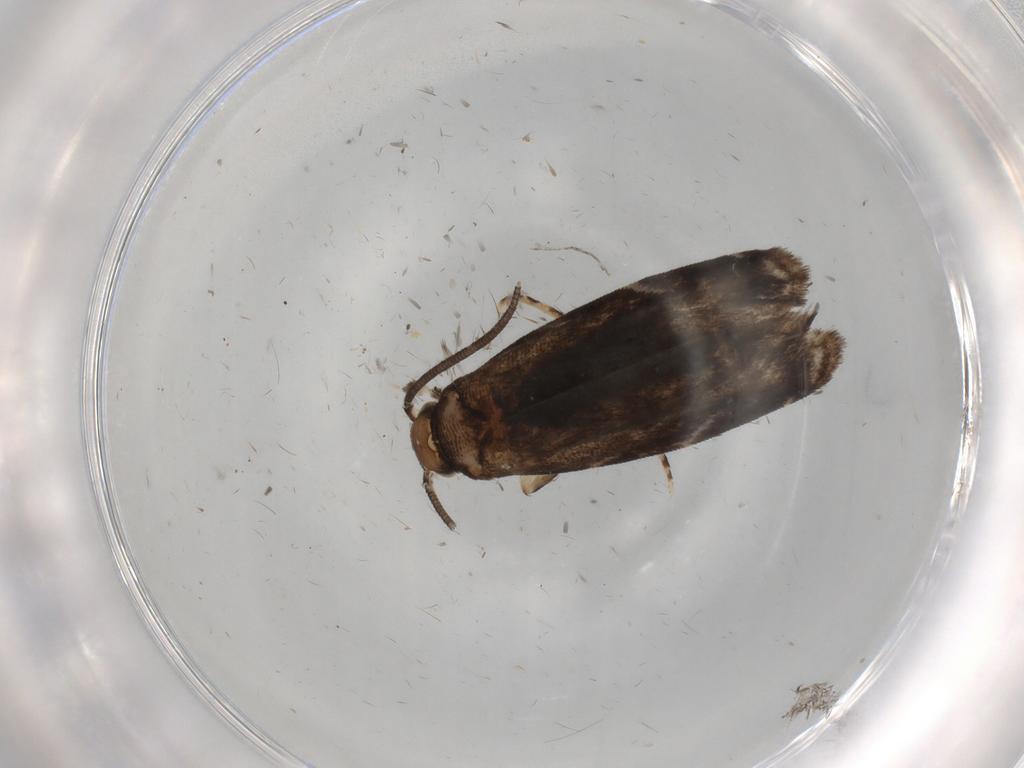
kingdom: Animalia
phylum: Arthropoda
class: Insecta
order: Lepidoptera
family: Dryadaulidae
